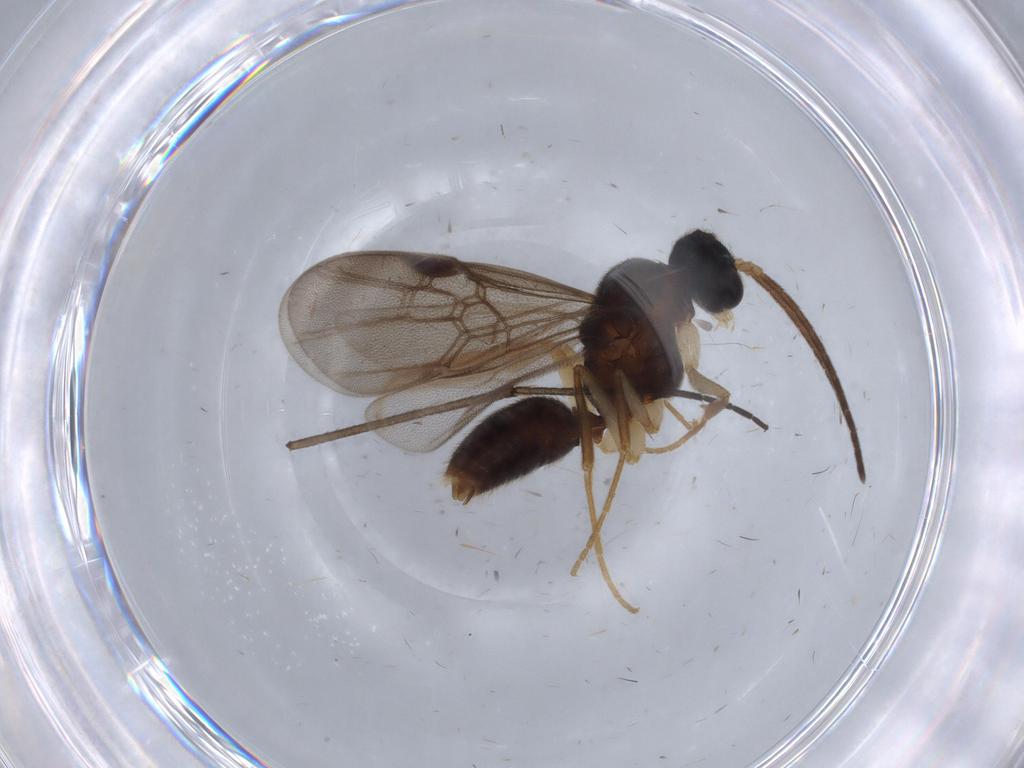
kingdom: Animalia
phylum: Arthropoda
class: Insecta
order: Hymenoptera
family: Formicidae
